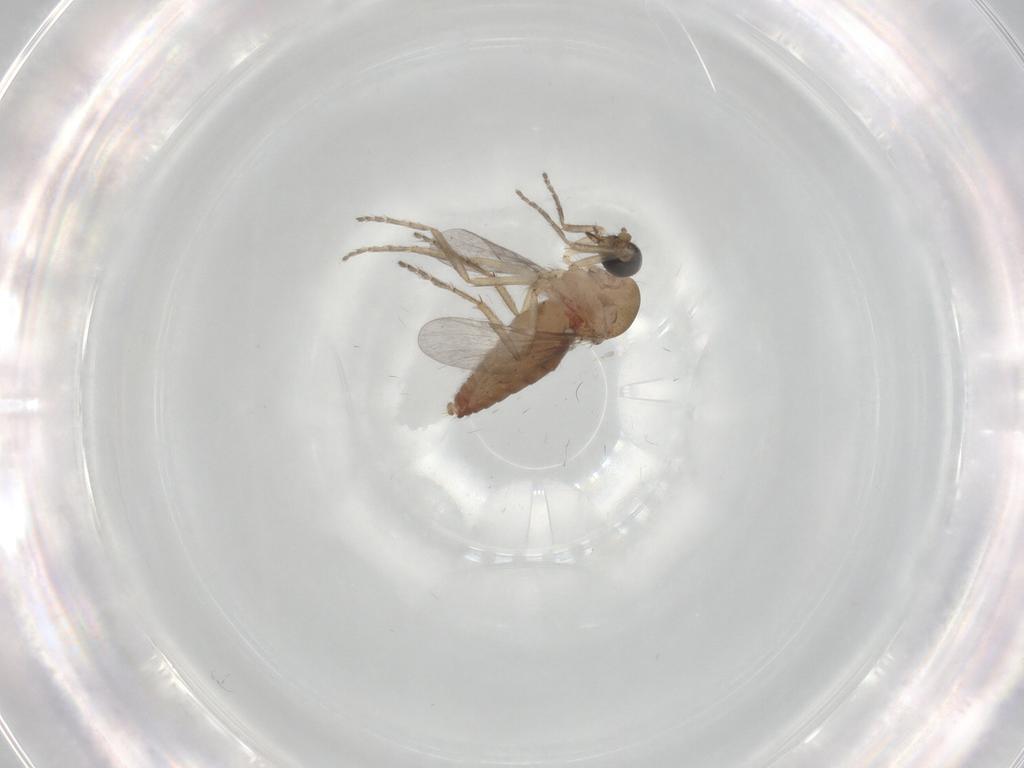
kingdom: Animalia
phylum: Arthropoda
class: Insecta
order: Diptera
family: Ceratopogonidae
